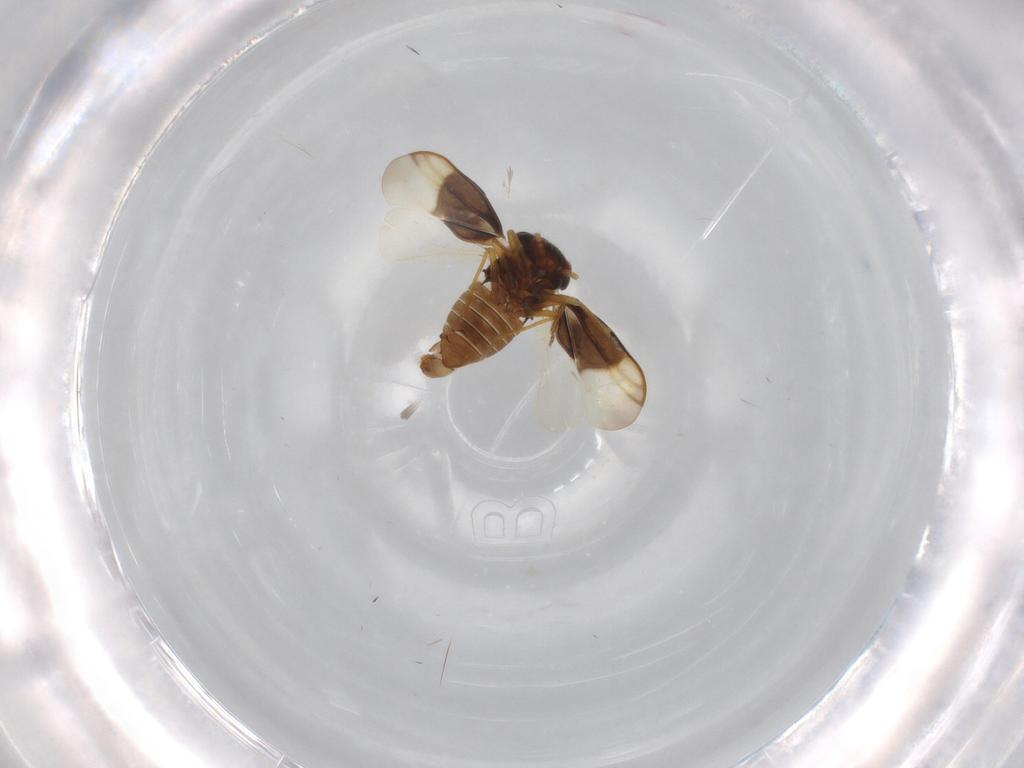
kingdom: Animalia
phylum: Arthropoda
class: Insecta
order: Hemiptera
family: Schizopteridae
